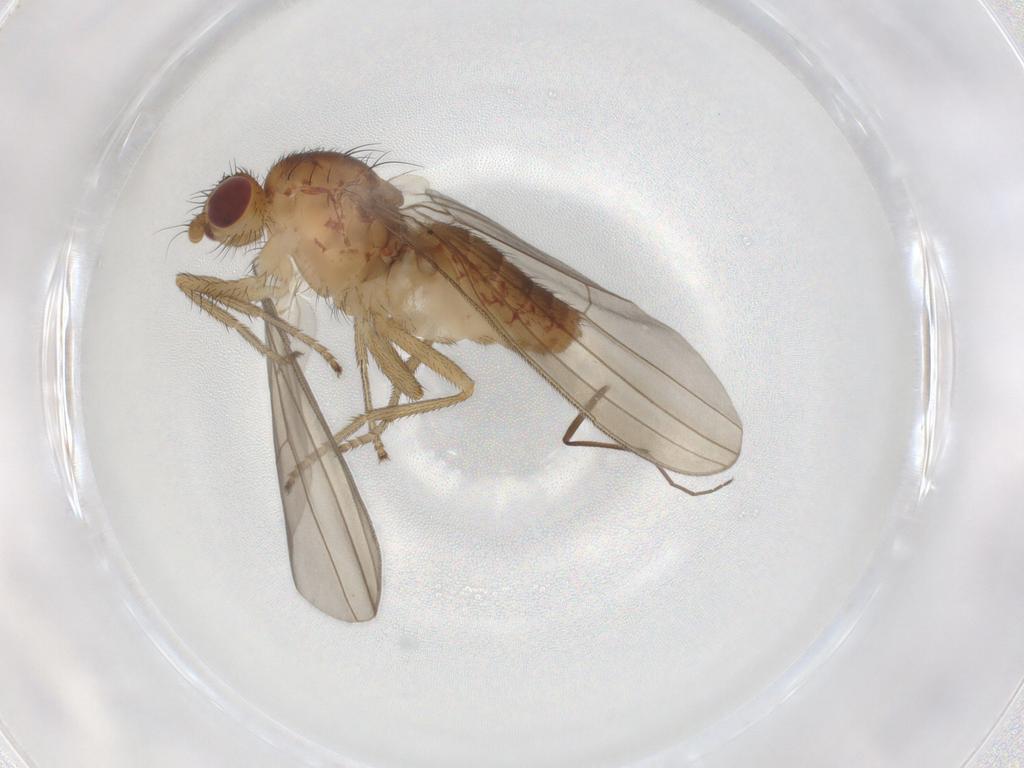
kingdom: Animalia
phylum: Arthropoda
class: Insecta
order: Diptera
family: Natalimyzidae
